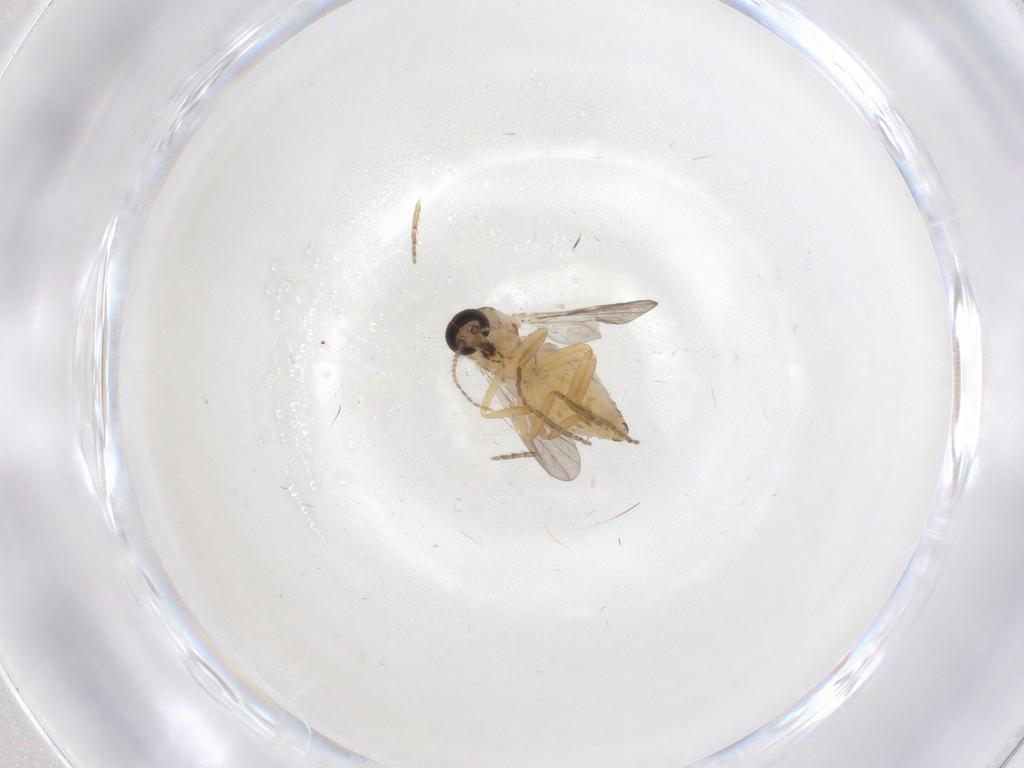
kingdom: Animalia
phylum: Arthropoda
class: Insecta
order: Diptera
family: Ceratopogonidae
